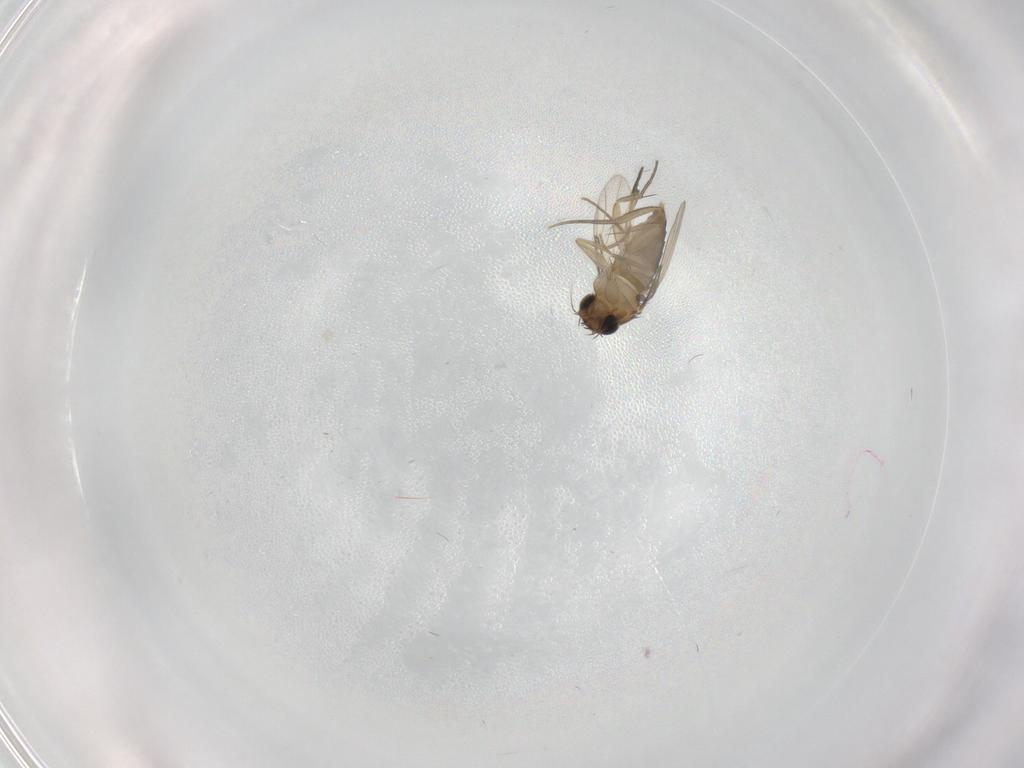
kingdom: Animalia
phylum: Arthropoda
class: Insecta
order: Diptera
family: Phoridae
